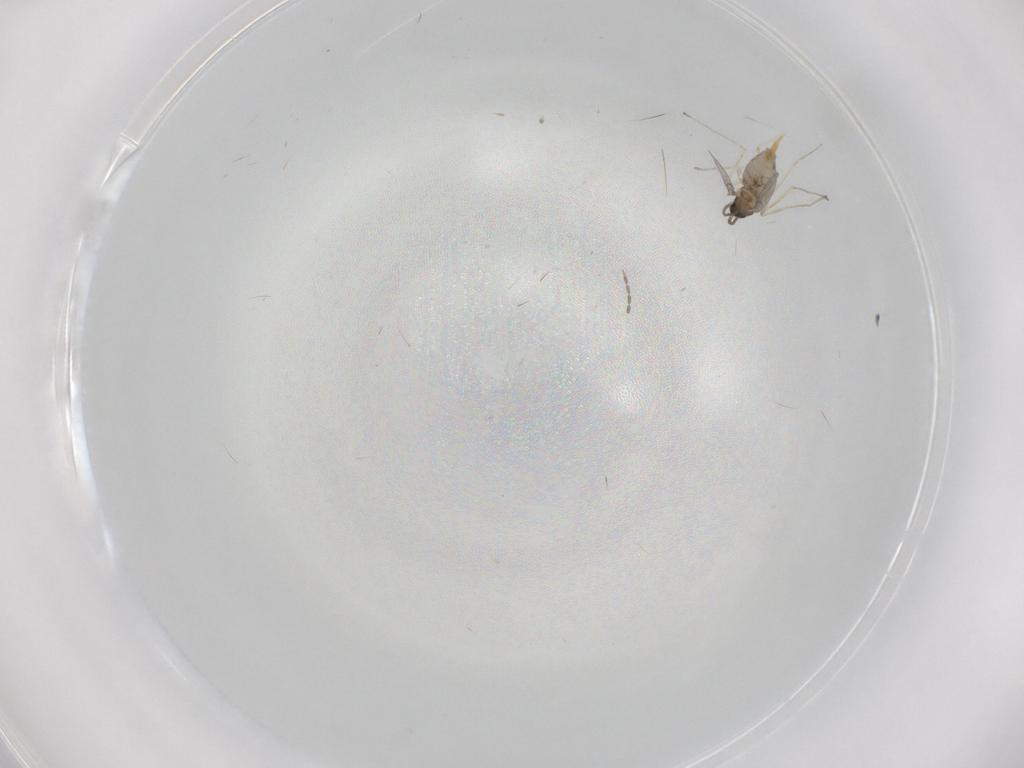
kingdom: Animalia
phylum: Arthropoda
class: Insecta
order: Diptera
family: Cecidomyiidae
